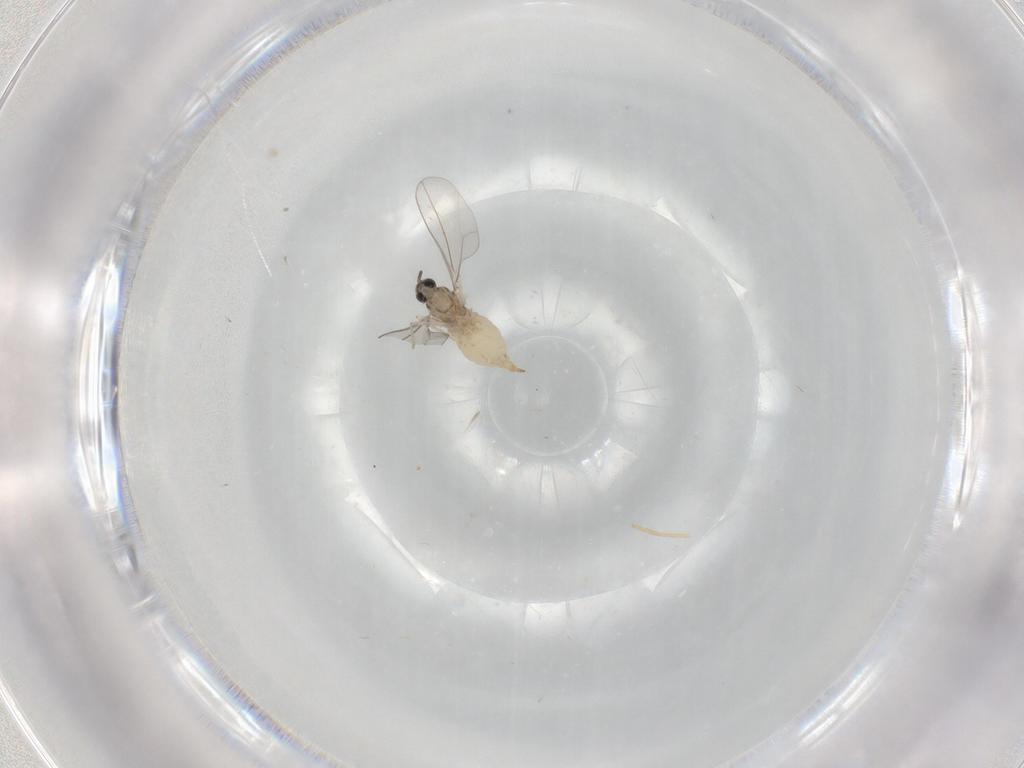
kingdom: Animalia
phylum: Arthropoda
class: Insecta
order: Diptera
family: Cecidomyiidae
